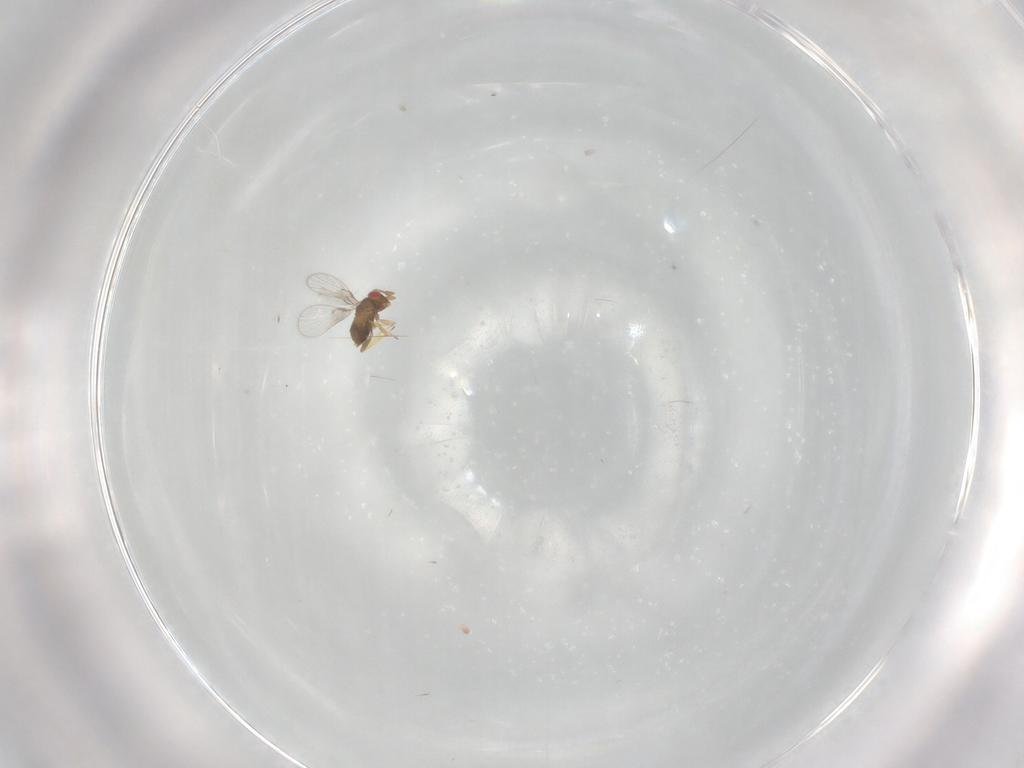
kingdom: Animalia
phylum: Arthropoda
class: Insecta
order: Hymenoptera
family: Trichogrammatidae
